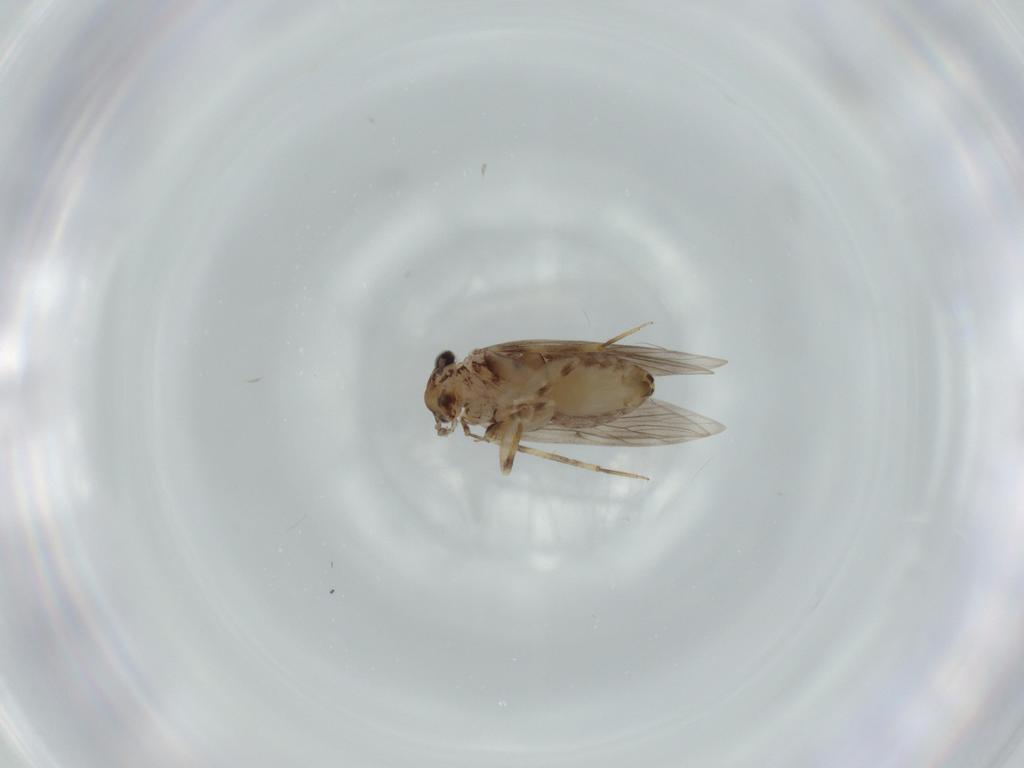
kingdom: Animalia
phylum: Arthropoda
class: Insecta
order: Psocodea
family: Lepidopsocidae
